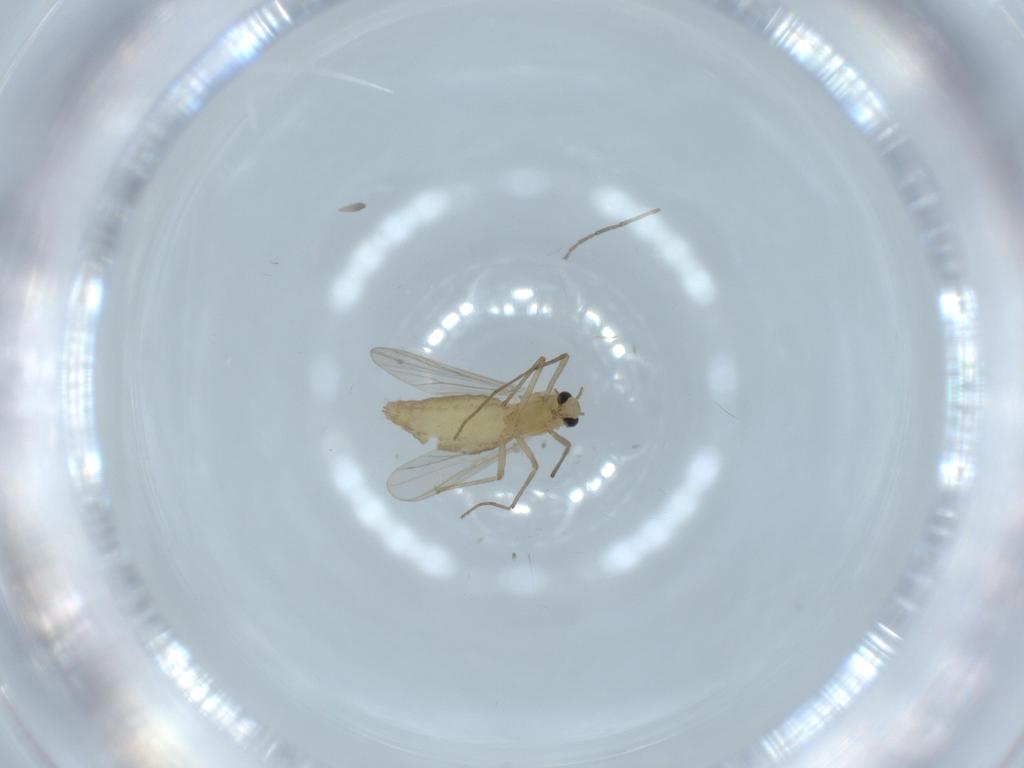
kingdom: Animalia
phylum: Arthropoda
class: Insecta
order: Diptera
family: Chironomidae
